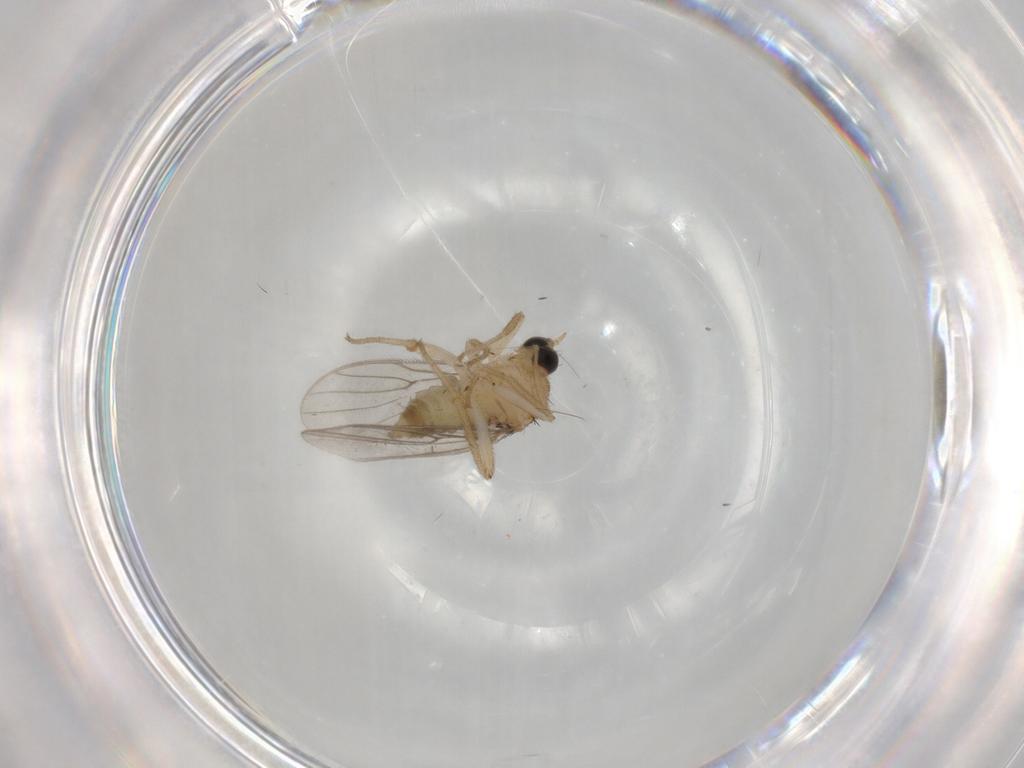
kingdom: Animalia
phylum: Arthropoda
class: Insecta
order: Diptera
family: Hybotidae
